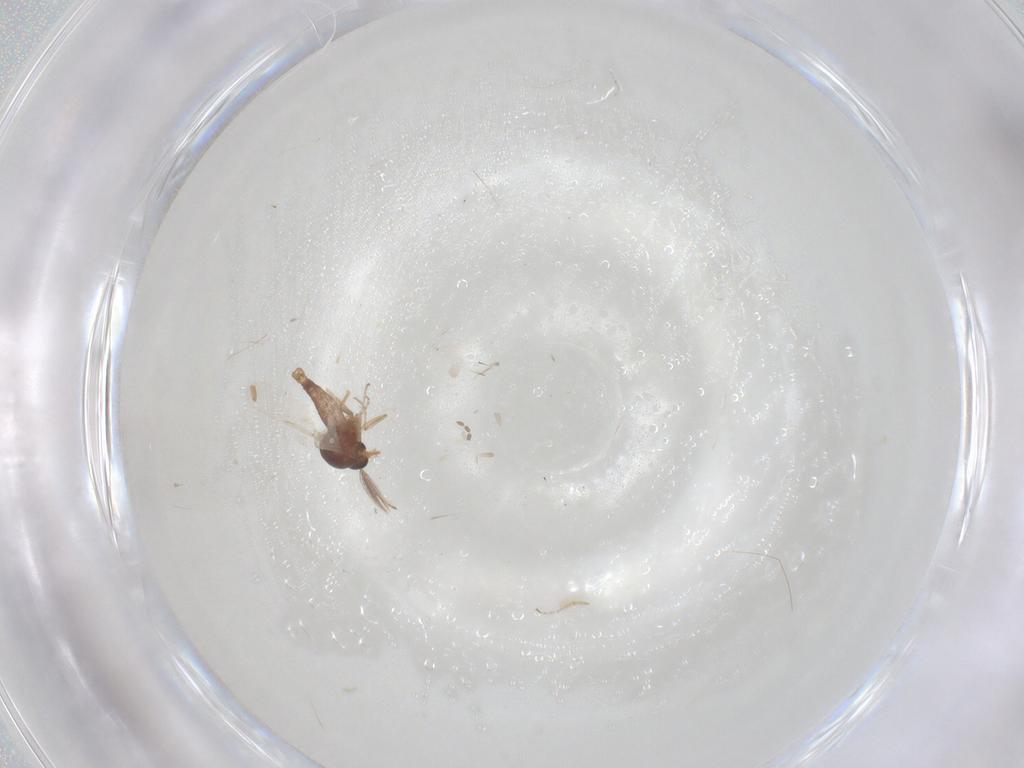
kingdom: Animalia
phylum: Arthropoda
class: Insecta
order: Diptera
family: Ceratopogonidae
